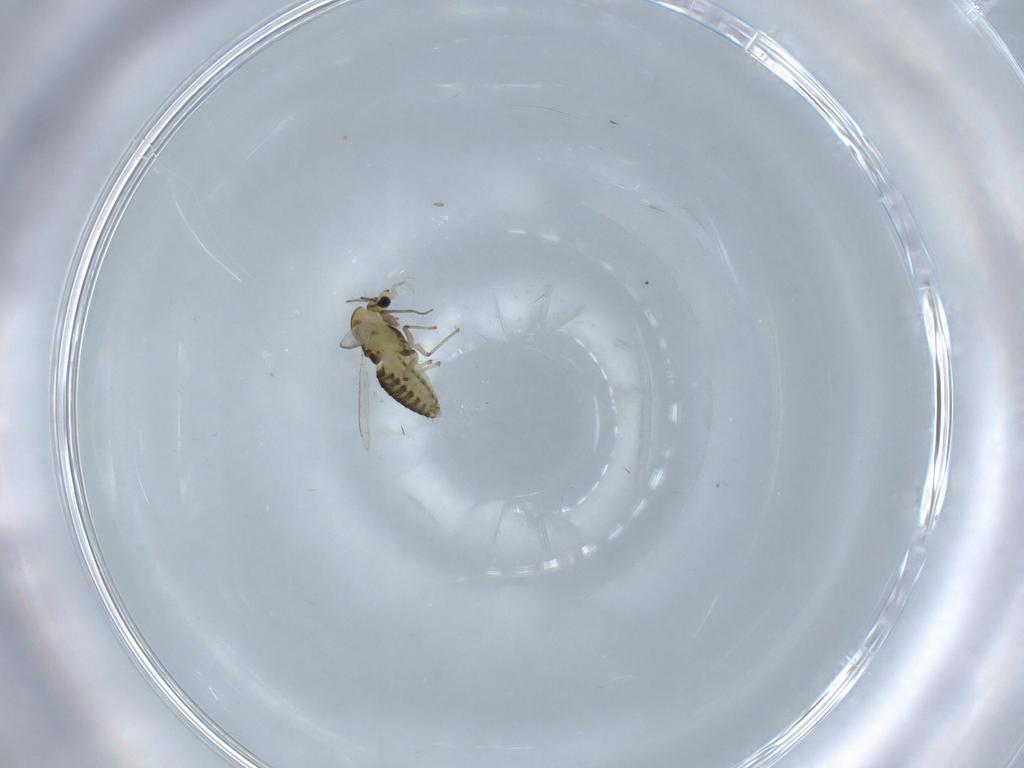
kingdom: Animalia
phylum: Arthropoda
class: Insecta
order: Diptera
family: Chironomidae
